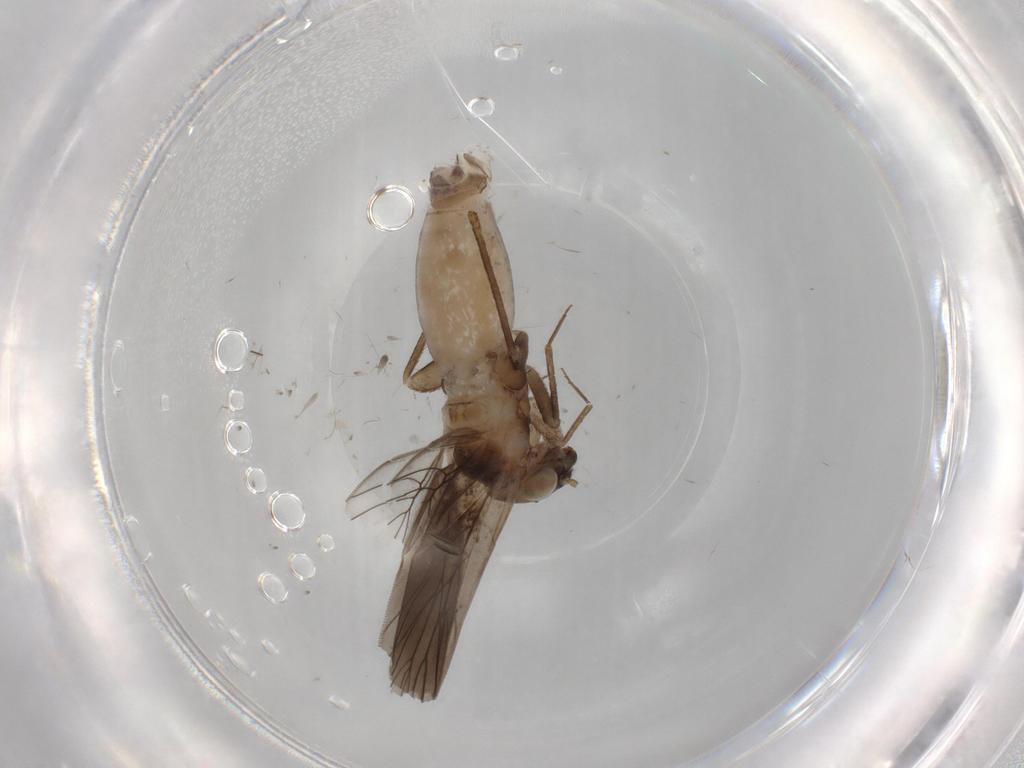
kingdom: Animalia
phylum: Arthropoda
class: Insecta
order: Psocodea
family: Lepidopsocidae
